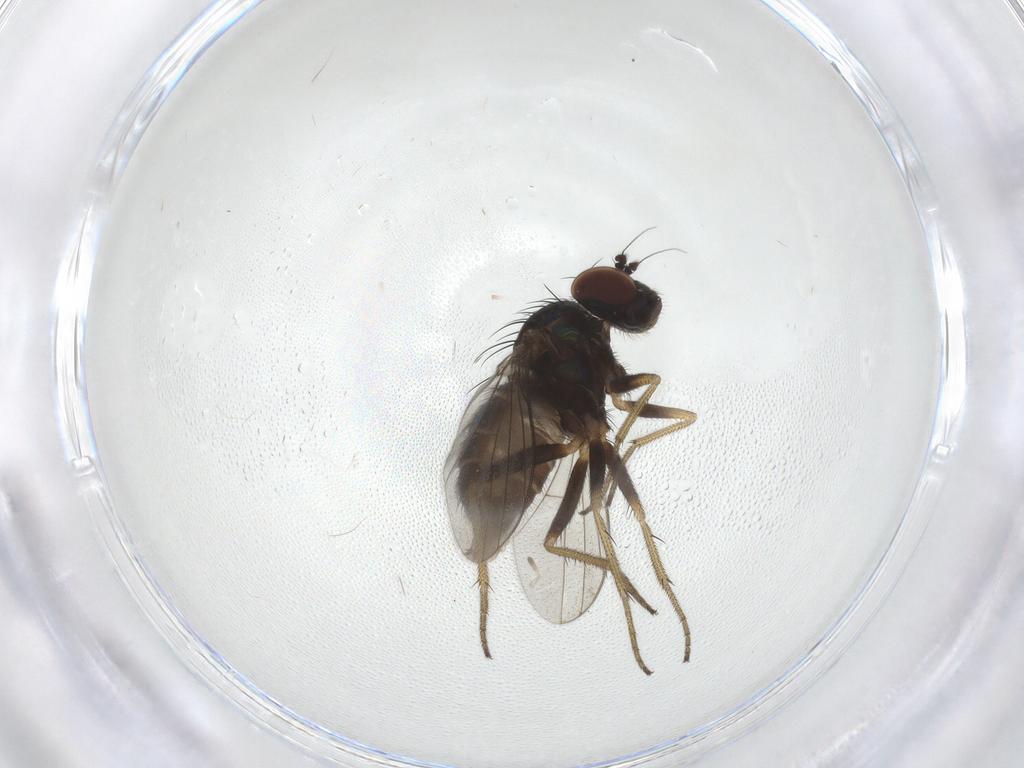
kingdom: Animalia
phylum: Arthropoda
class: Insecta
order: Diptera
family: Dolichopodidae
